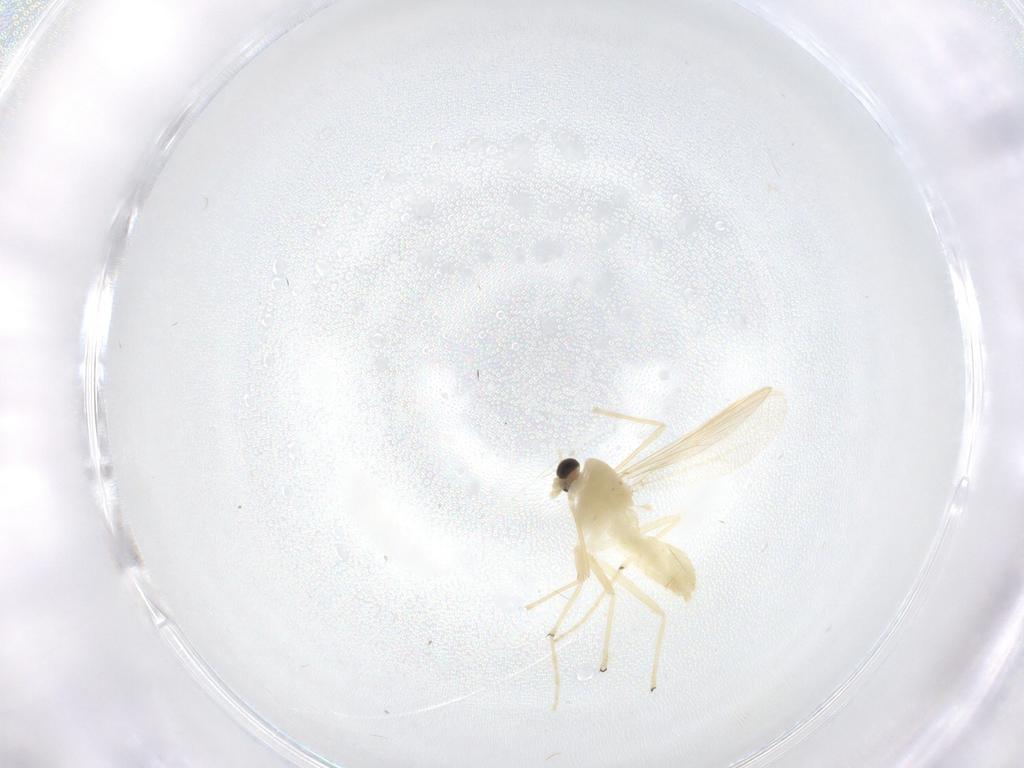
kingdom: Animalia
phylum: Arthropoda
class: Insecta
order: Diptera
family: Chironomidae
